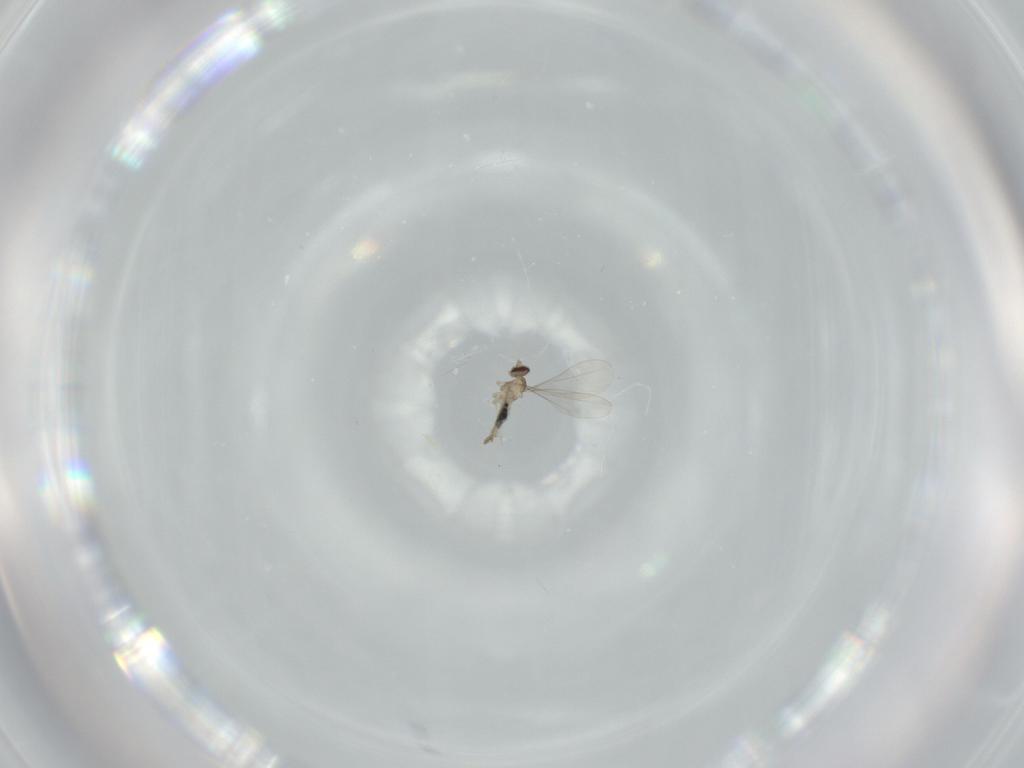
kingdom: Animalia
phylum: Arthropoda
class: Insecta
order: Diptera
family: Cecidomyiidae
